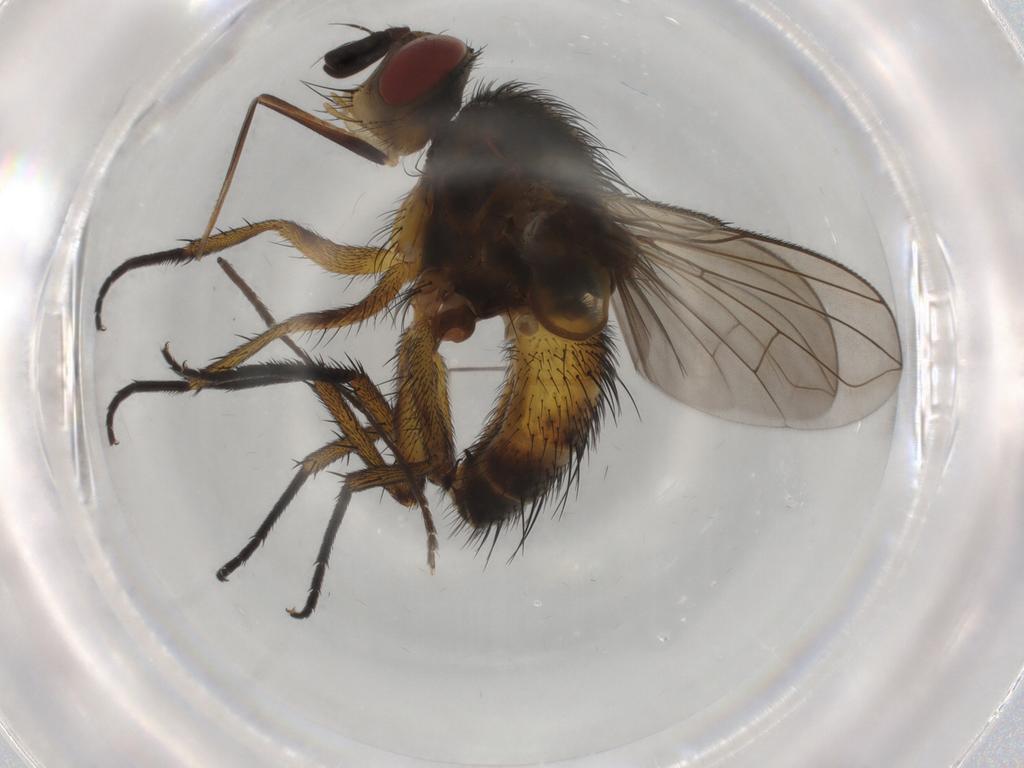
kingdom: Animalia
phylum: Arthropoda
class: Insecta
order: Diptera
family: Tachinidae
